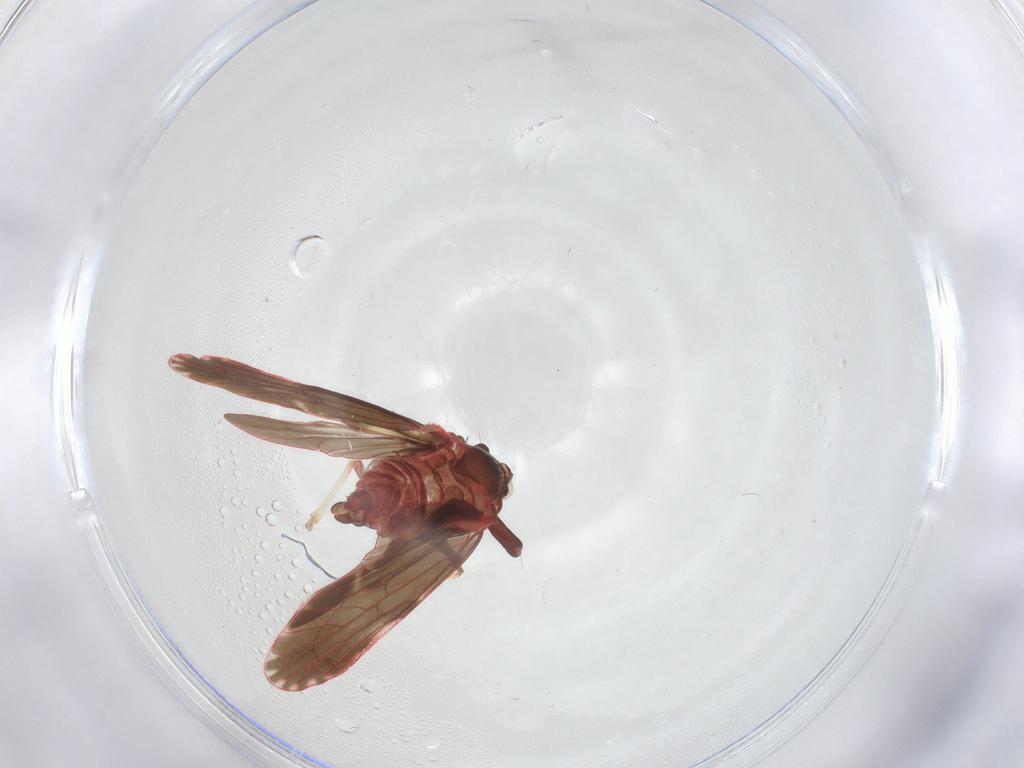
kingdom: Animalia
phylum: Arthropoda
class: Insecta
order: Hemiptera
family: Derbidae
